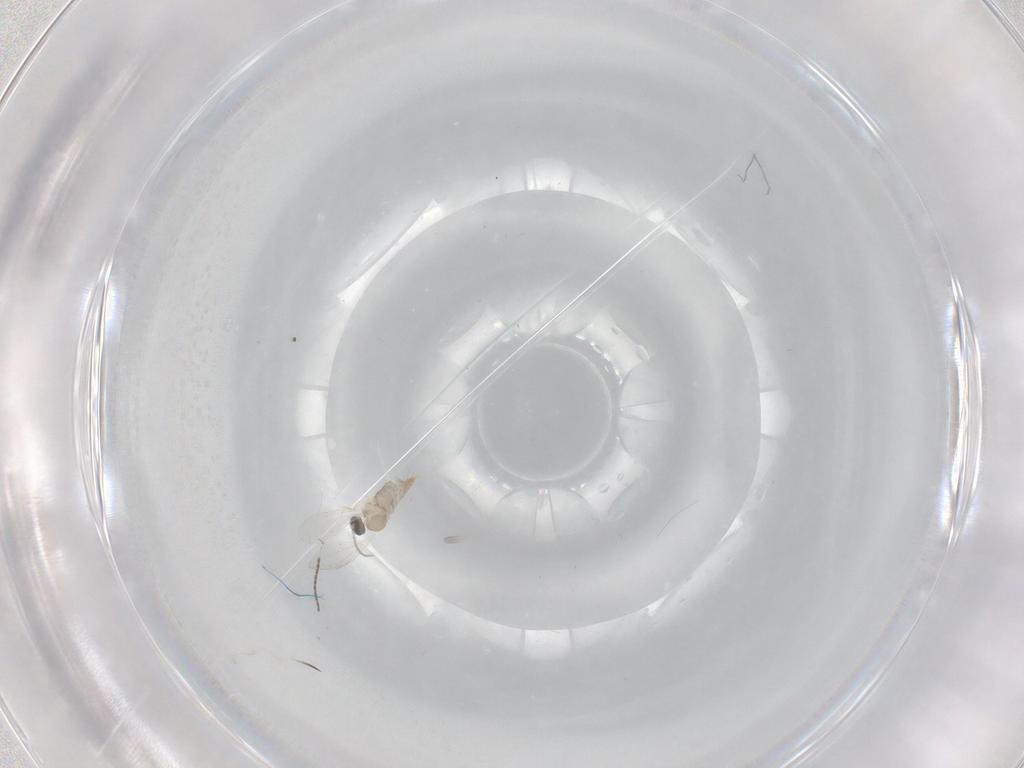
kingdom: Animalia
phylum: Arthropoda
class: Insecta
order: Diptera
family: Cecidomyiidae
